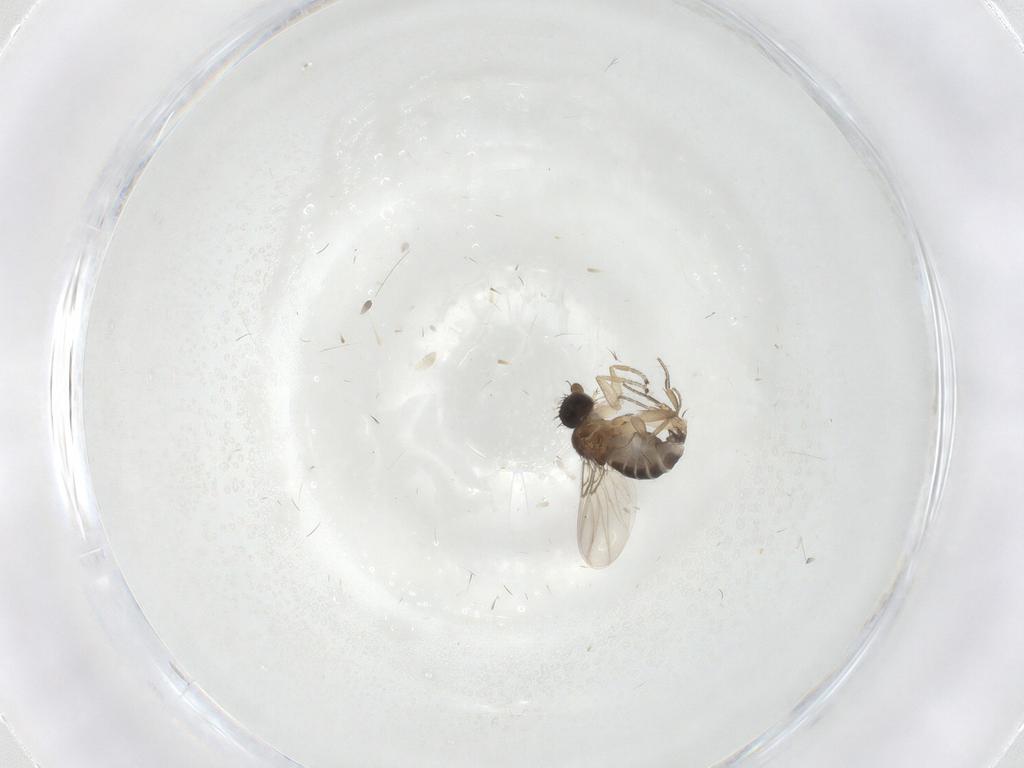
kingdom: Animalia
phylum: Arthropoda
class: Insecta
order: Diptera
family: Phoridae
